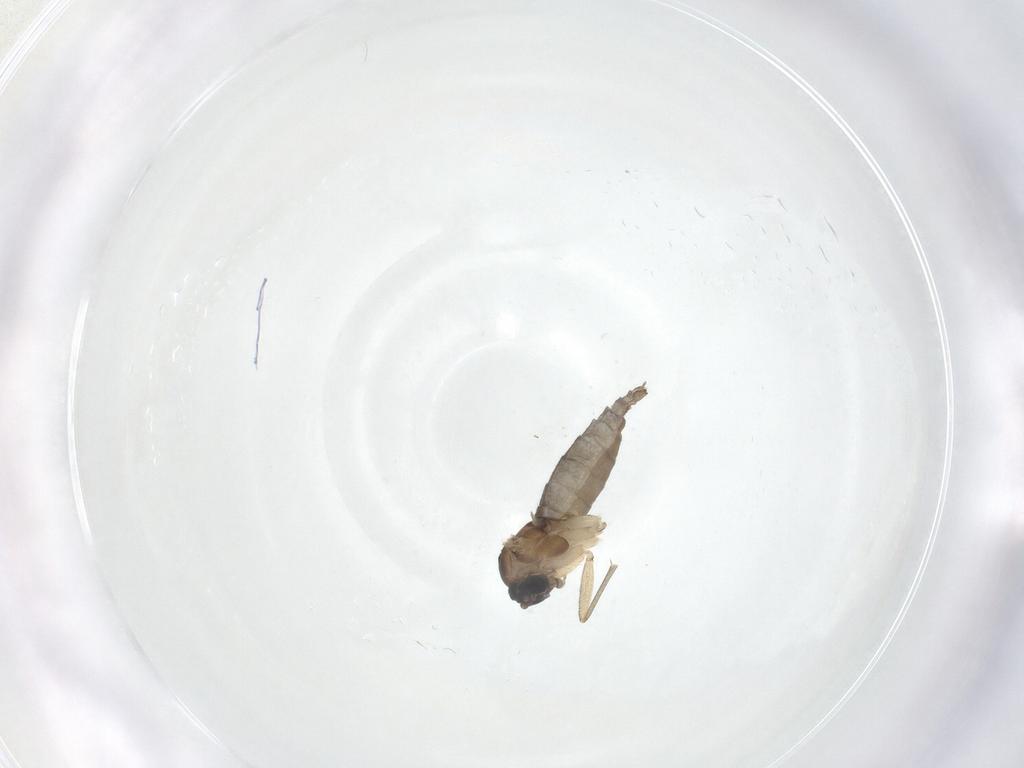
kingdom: Animalia
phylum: Arthropoda
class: Insecta
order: Diptera
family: Sciaridae
